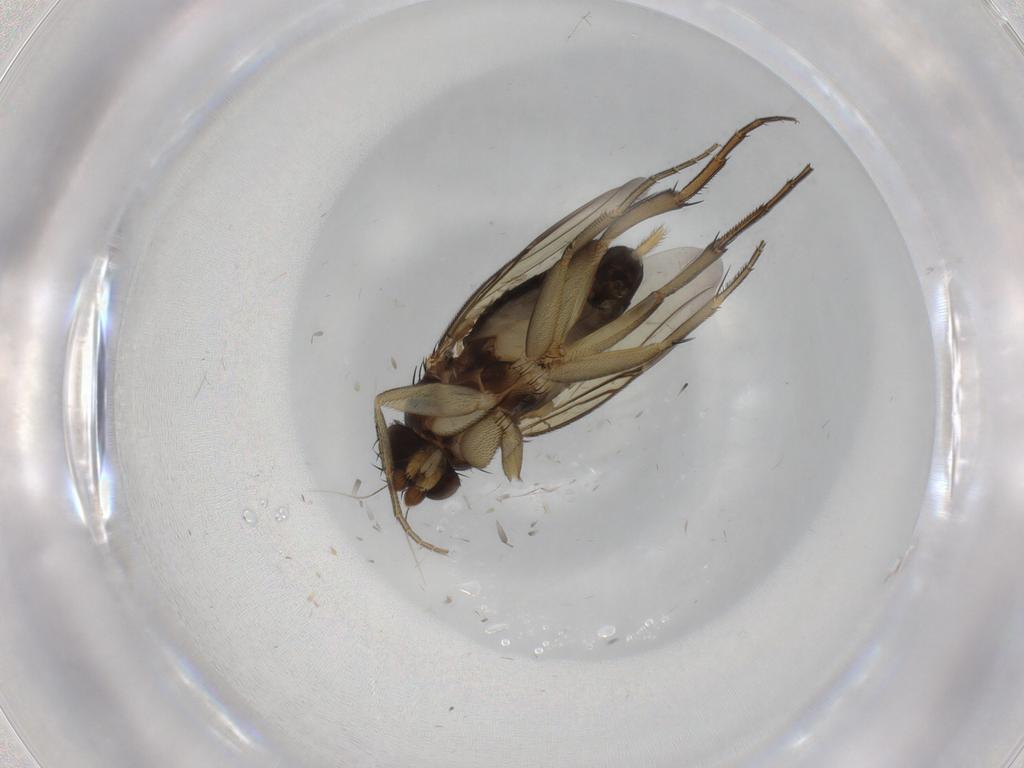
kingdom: Animalia
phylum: Arthropoda
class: Insecta
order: Diptera
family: Phoridae
